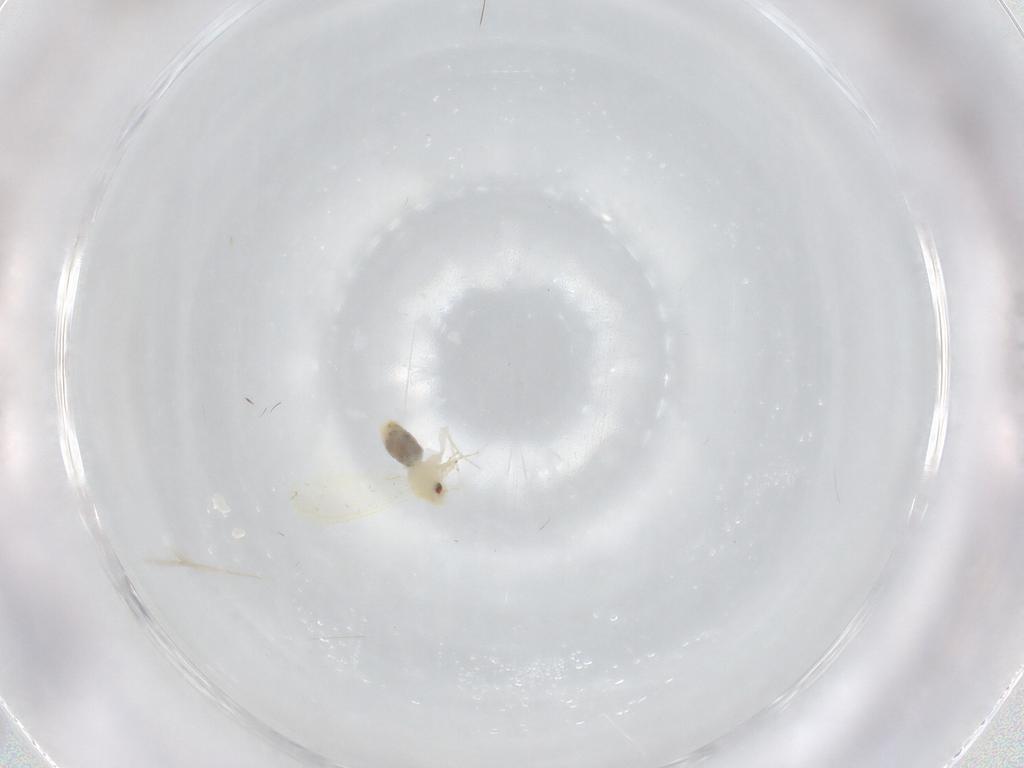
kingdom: Animalia
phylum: Arthropoda
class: Insecta
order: Hemiptera
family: Aleyrodidae
